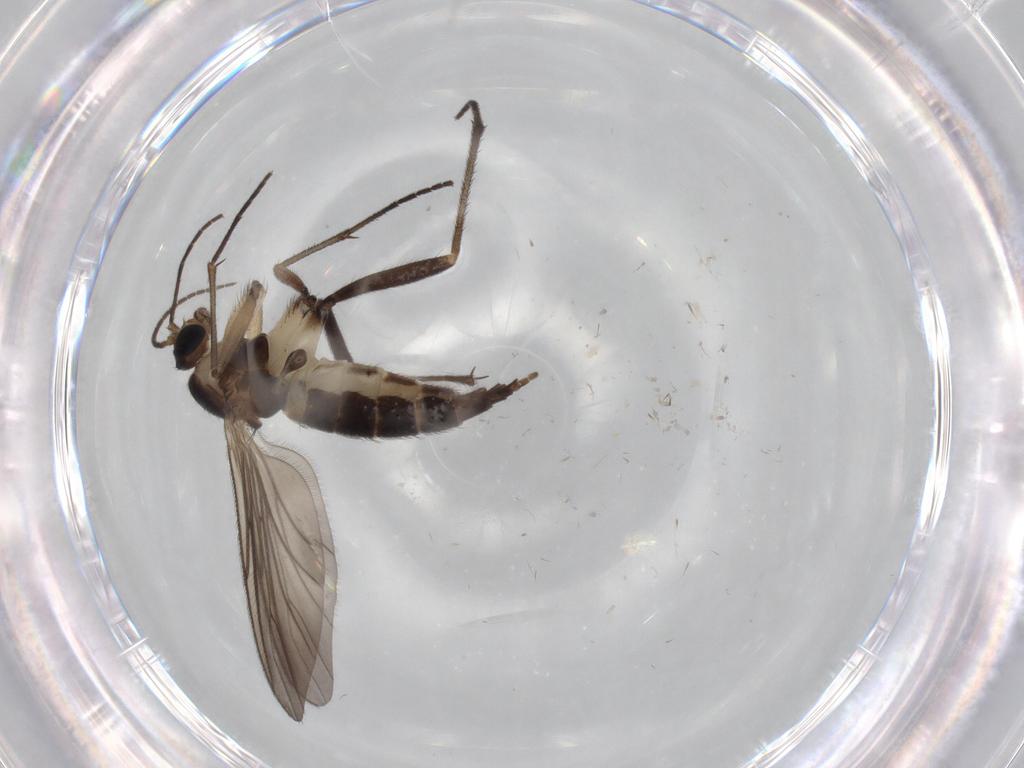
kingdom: Animalia
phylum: Arthropoda
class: Insecta
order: Diptera
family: Sciaridae
